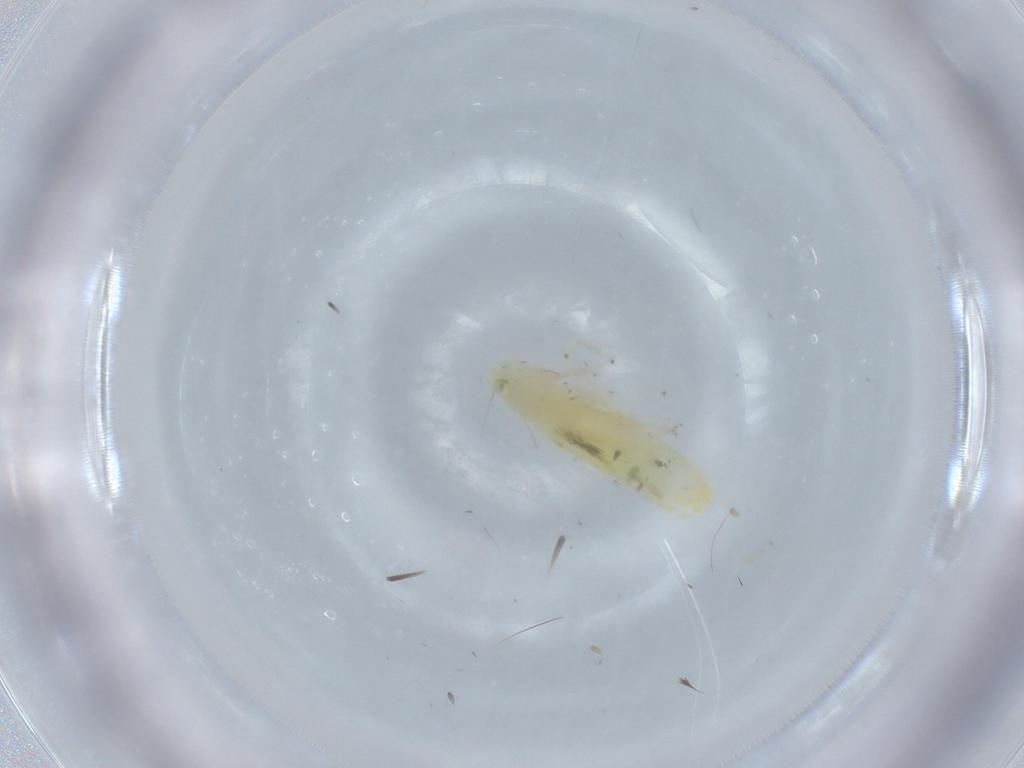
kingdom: Animalia
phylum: Arthropoda
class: Insecta
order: Hemiptera
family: Cicadellidae
